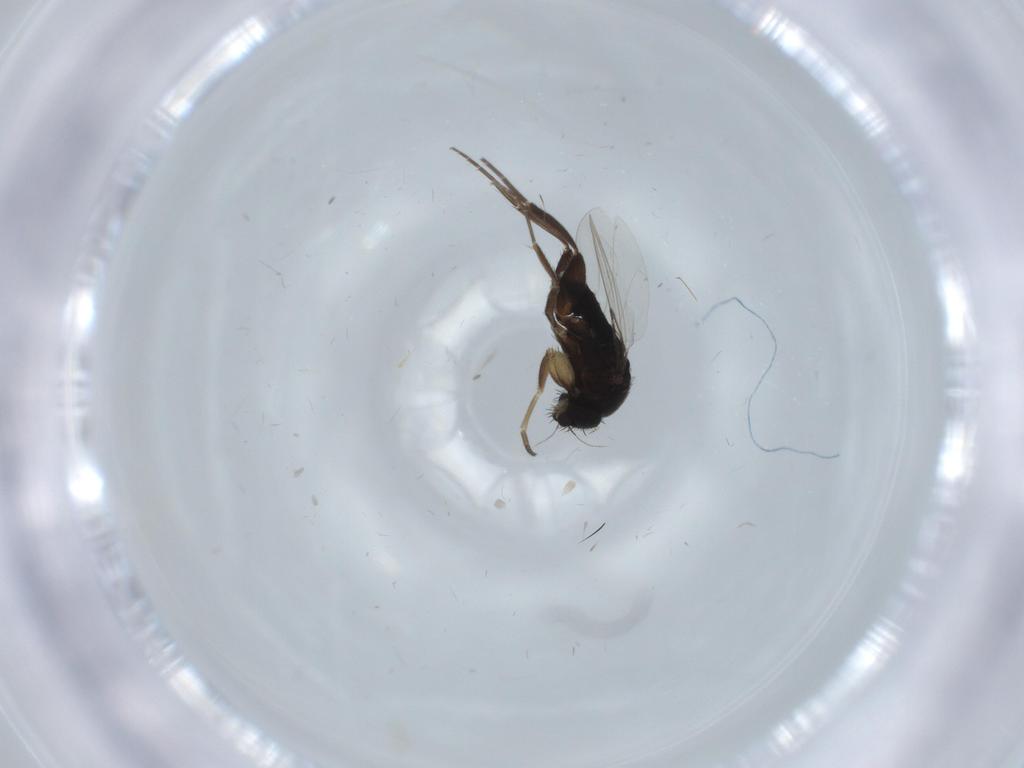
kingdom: Animalia
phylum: Arthropoda
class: Insecta
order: Diptera
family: Phoridae
